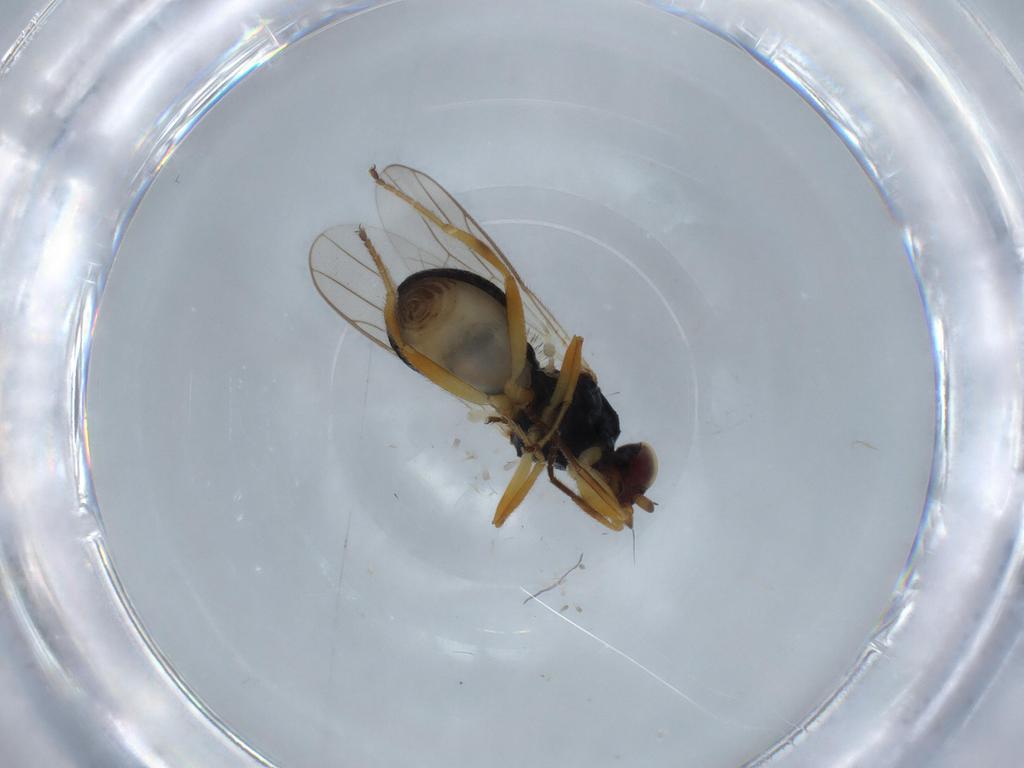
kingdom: Animalia
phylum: Arthropoda
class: Insecta
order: Diptera
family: Chloropidae
